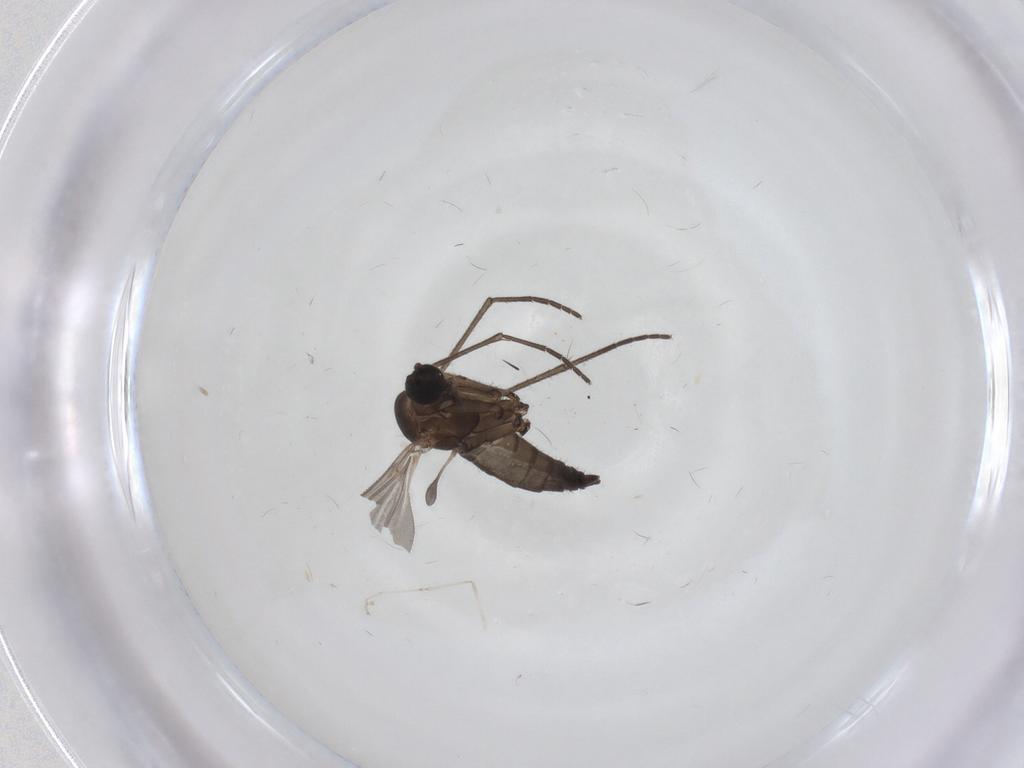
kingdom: Animalia
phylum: Arthropoda
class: Insecta
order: Diptera
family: Sciaridae
